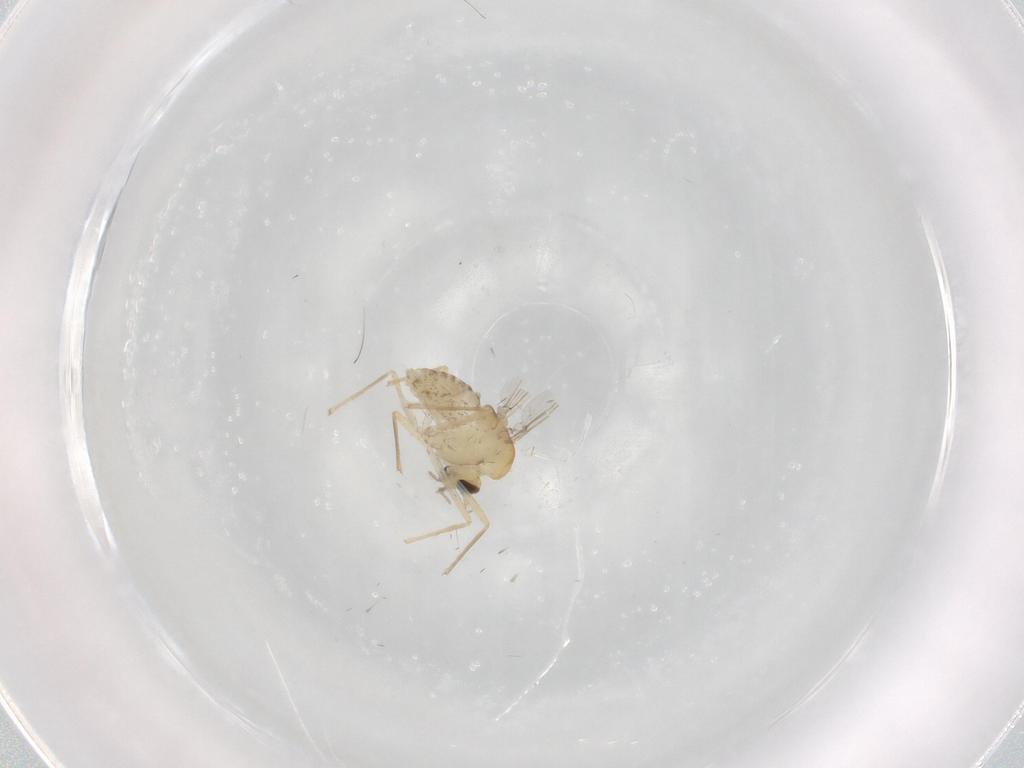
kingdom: Animalia
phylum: Arthropoda
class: Insecta
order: Diptera
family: Chironomidae
